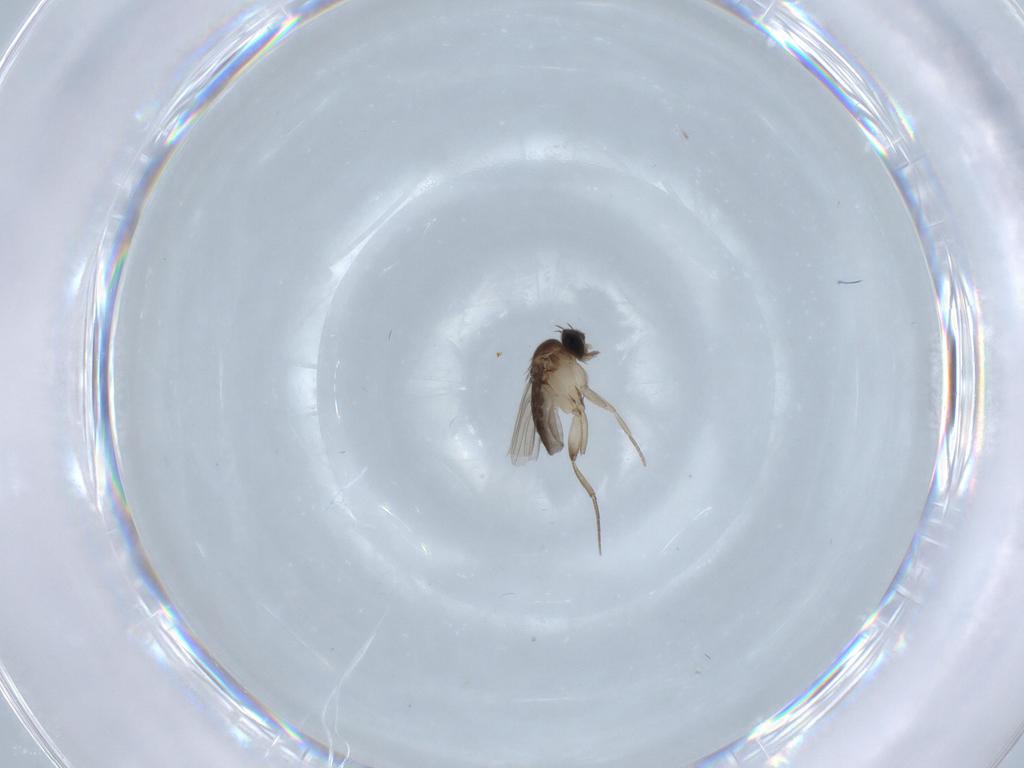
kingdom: Animalia
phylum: Arthropoda
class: Insecta
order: Diptera
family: Phoridae
